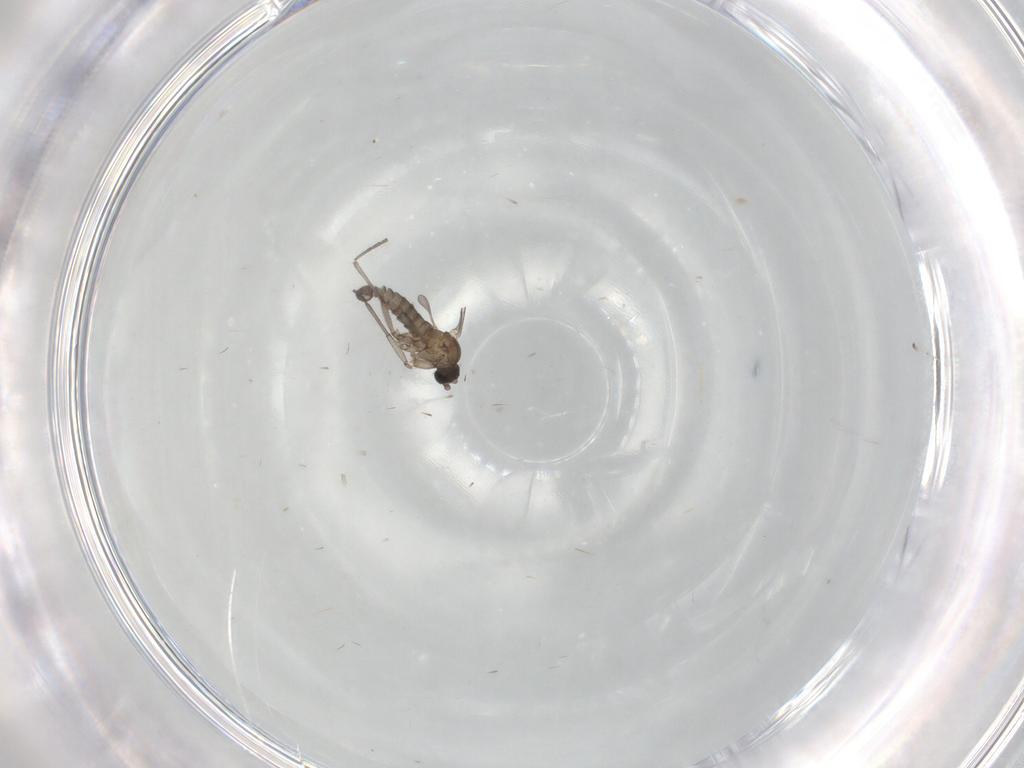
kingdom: Animalia
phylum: Arthropoda
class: Insecta
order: Diptera
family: Sciaridae
